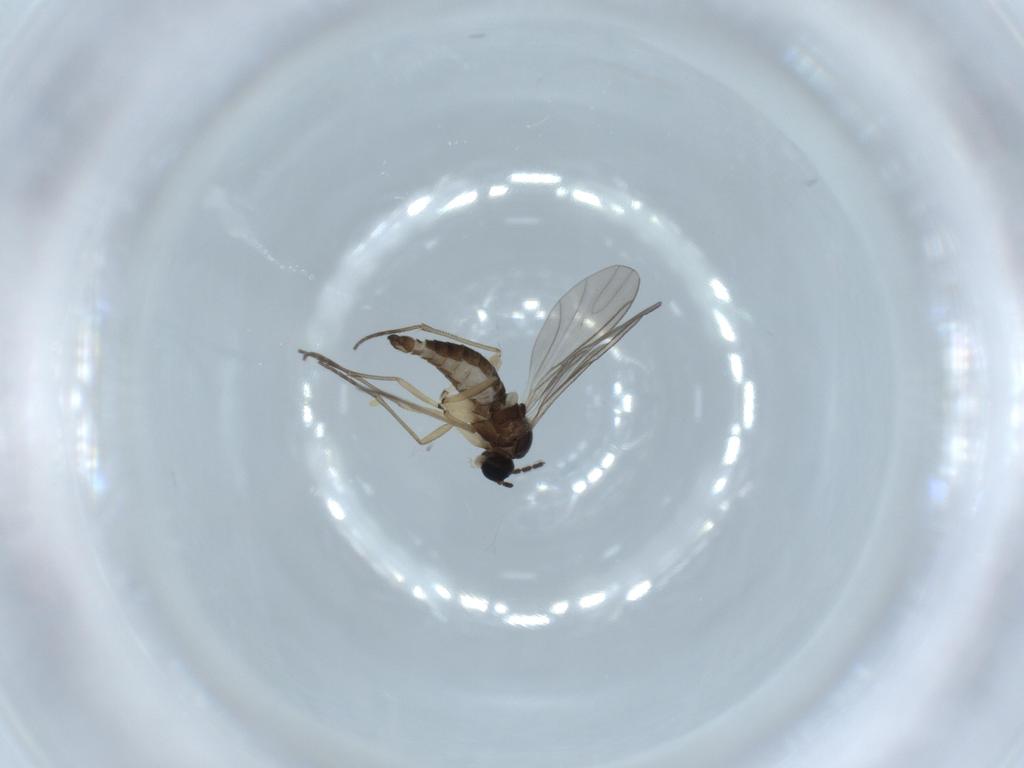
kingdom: Animalia
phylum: Arthropoda
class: Insecta
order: Diptera
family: Sciaridae
